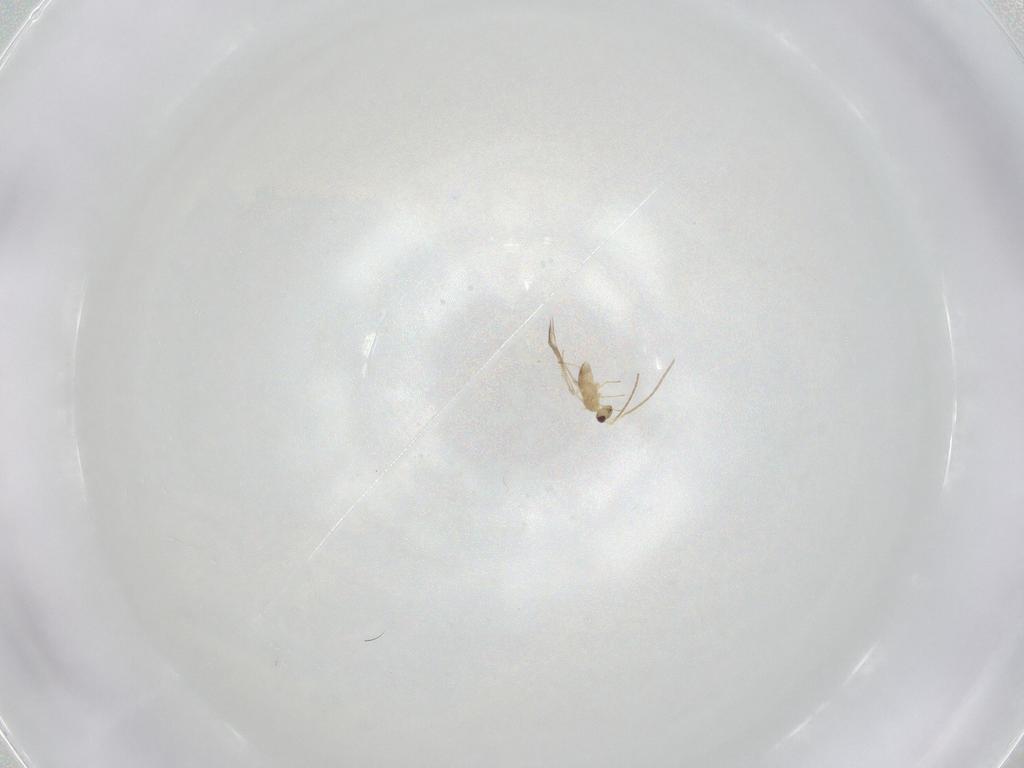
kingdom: Animalia
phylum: Arthropoda
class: Insecta
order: Hymenoptera
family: Mymaridae
